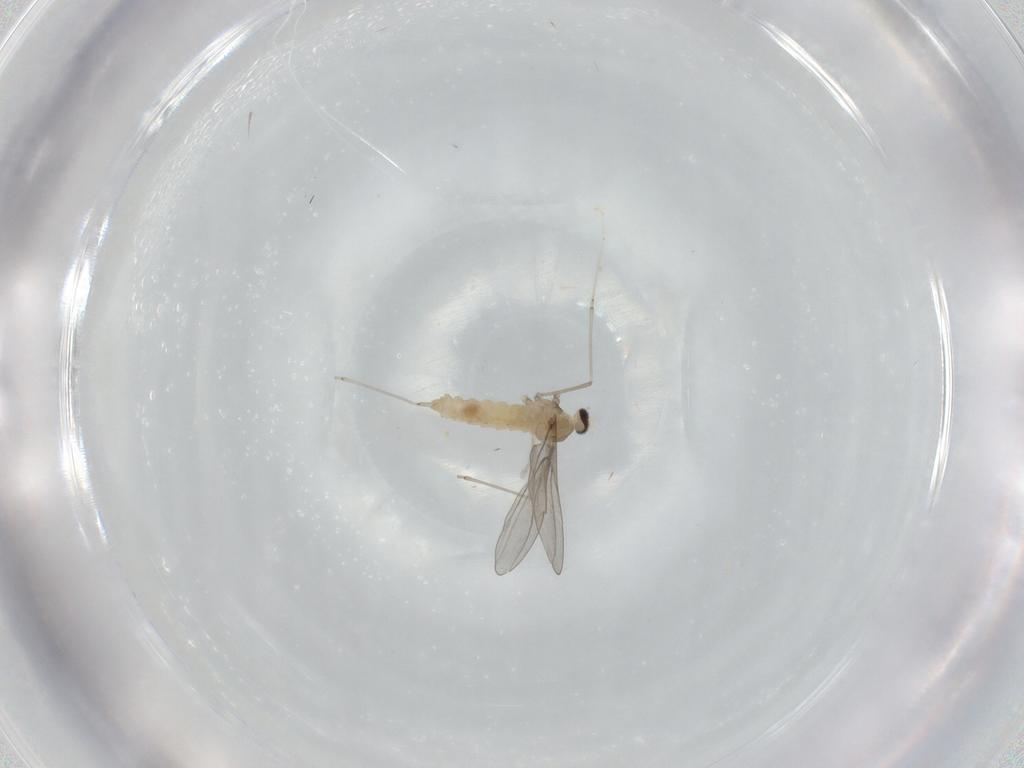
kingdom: Animalia
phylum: Arthropoda
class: Insecta
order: Diptera
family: Cecidomyiidae
